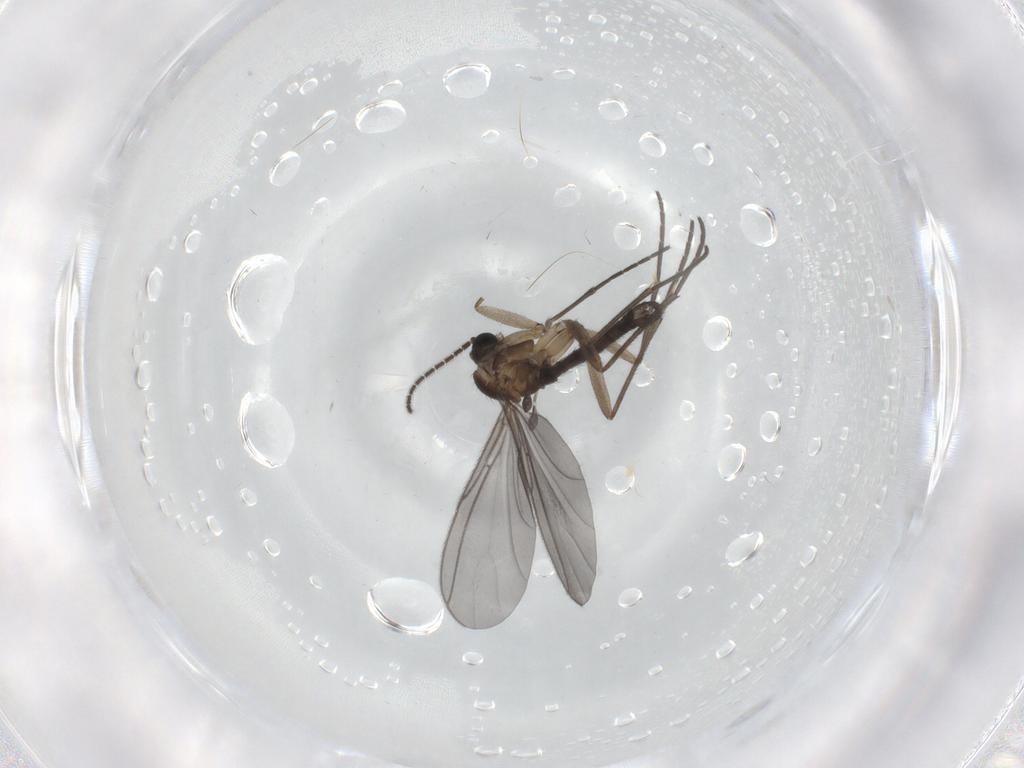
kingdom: Animalia
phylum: Arthropoda
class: Insecta
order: Diptera
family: Sciaridae
